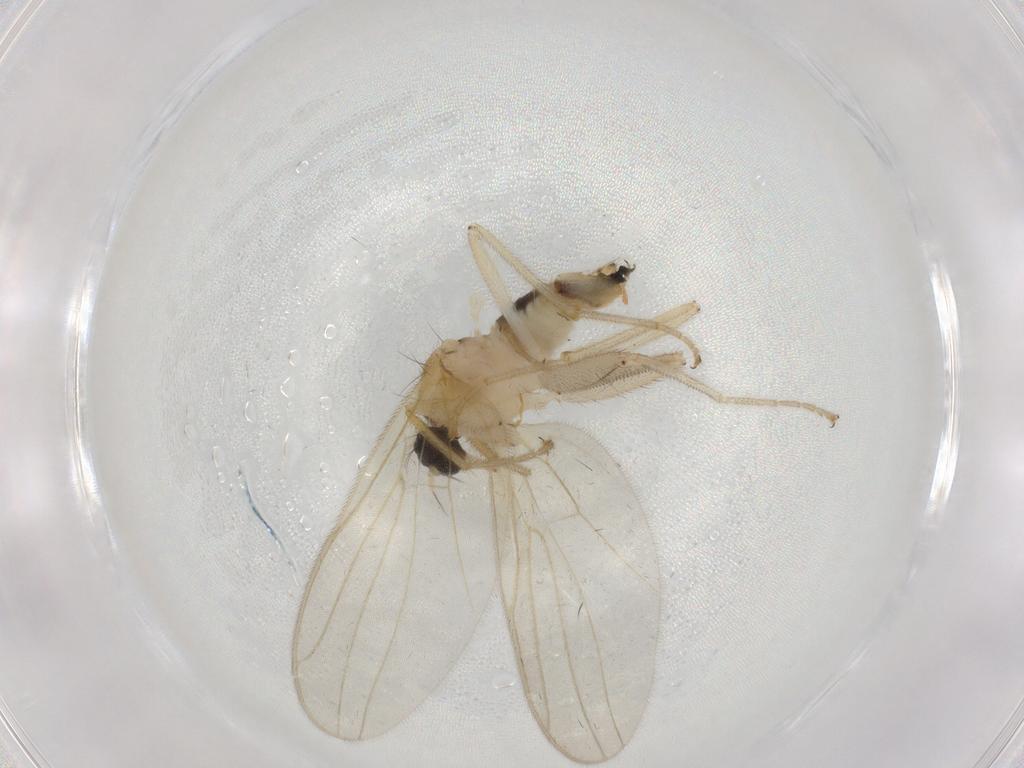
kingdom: Animalia
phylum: Arthropoda
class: Insecta
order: Diptera
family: Hybotidae
